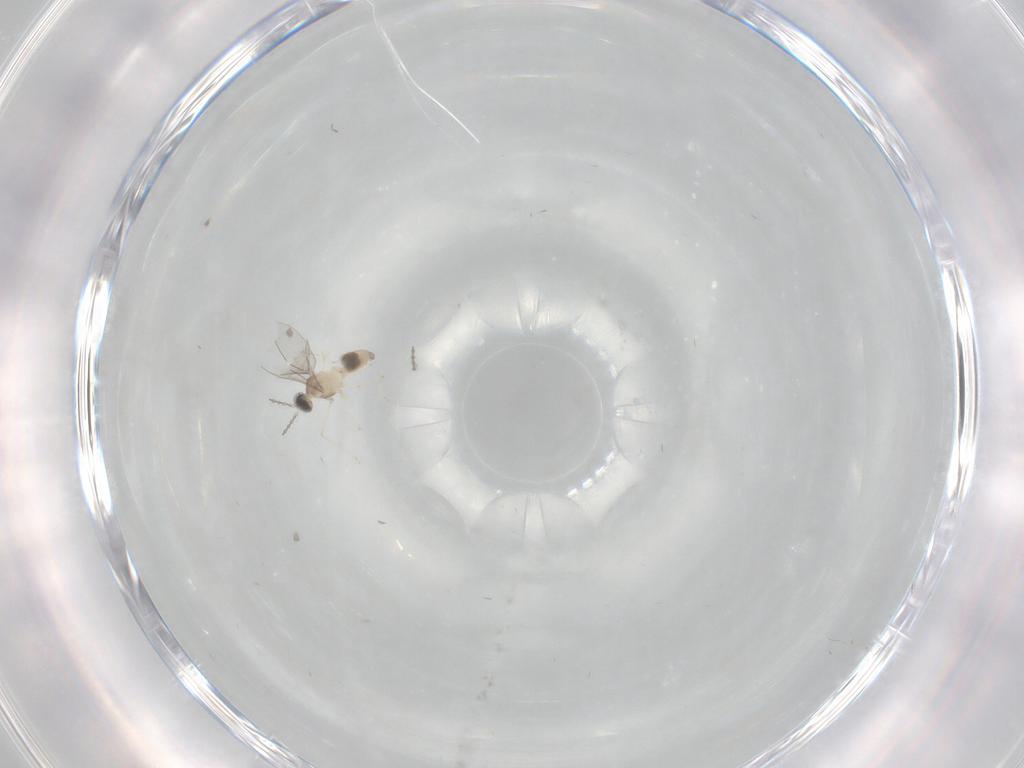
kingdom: Animalia
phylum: Arthropoda
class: Insecta
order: Diptera
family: Cecidomyiidae
